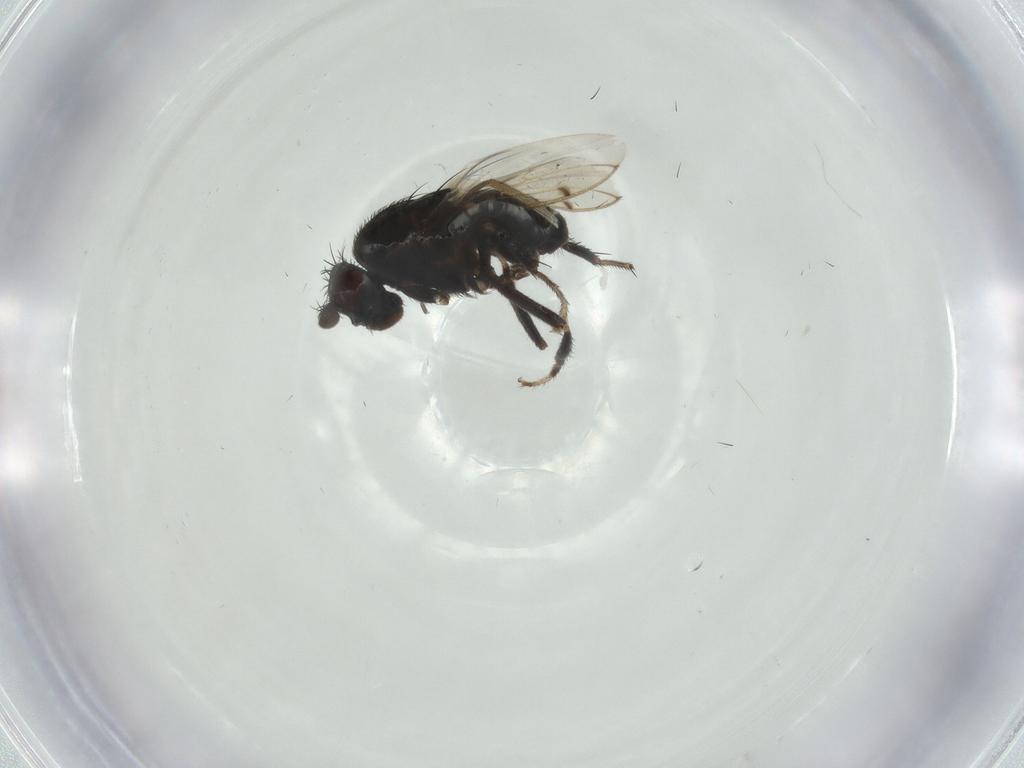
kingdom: Animalia
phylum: Arthropoda
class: Insecta
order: Diptera
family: Sphaeroceridae
